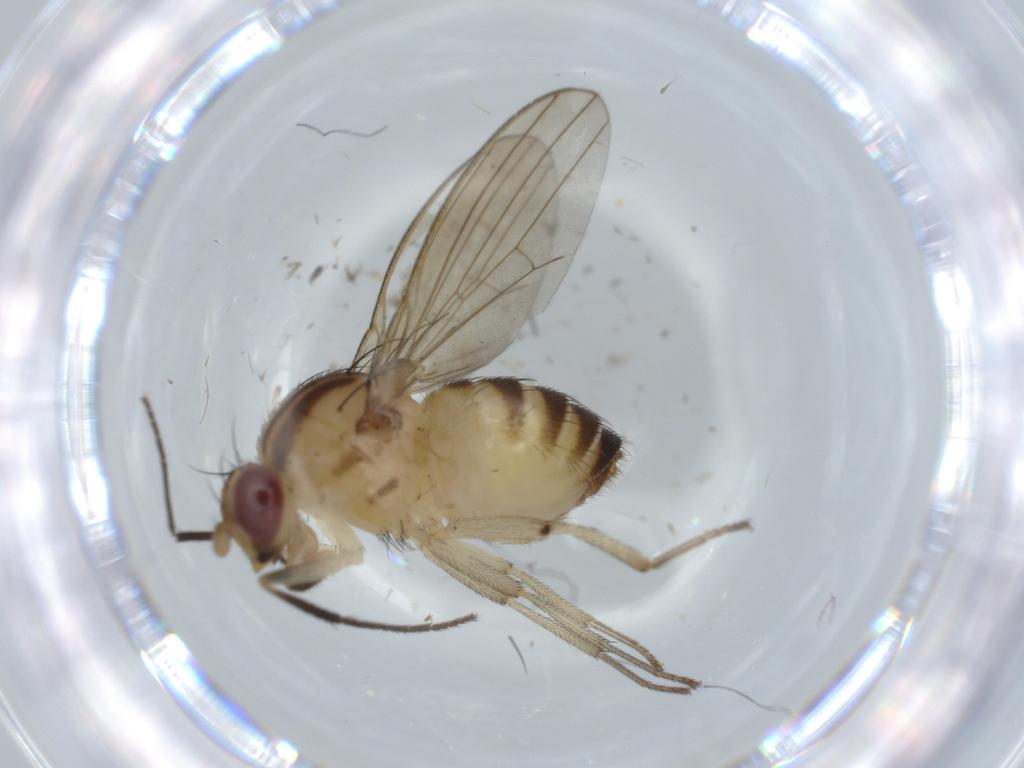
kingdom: Animalia
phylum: Arthropoda
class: Insecta
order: Diptera
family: Cecidomyiidae
